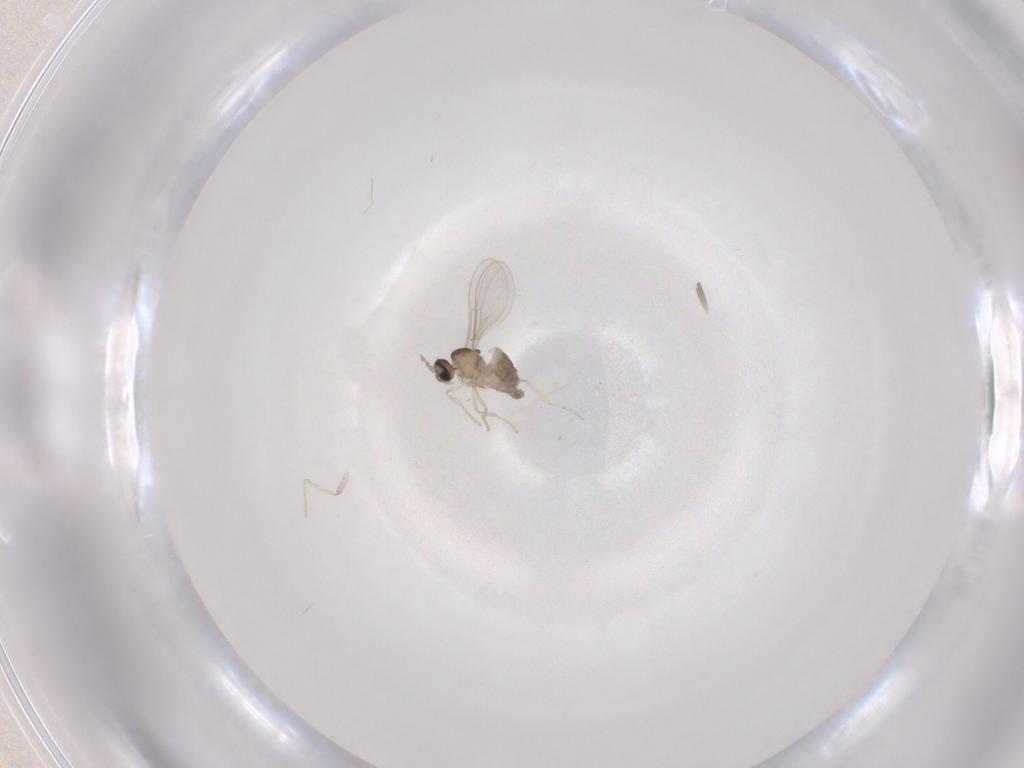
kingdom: Animalia
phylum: Arthropoda
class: Insecta
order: Diptera
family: Cecidomyiidae
